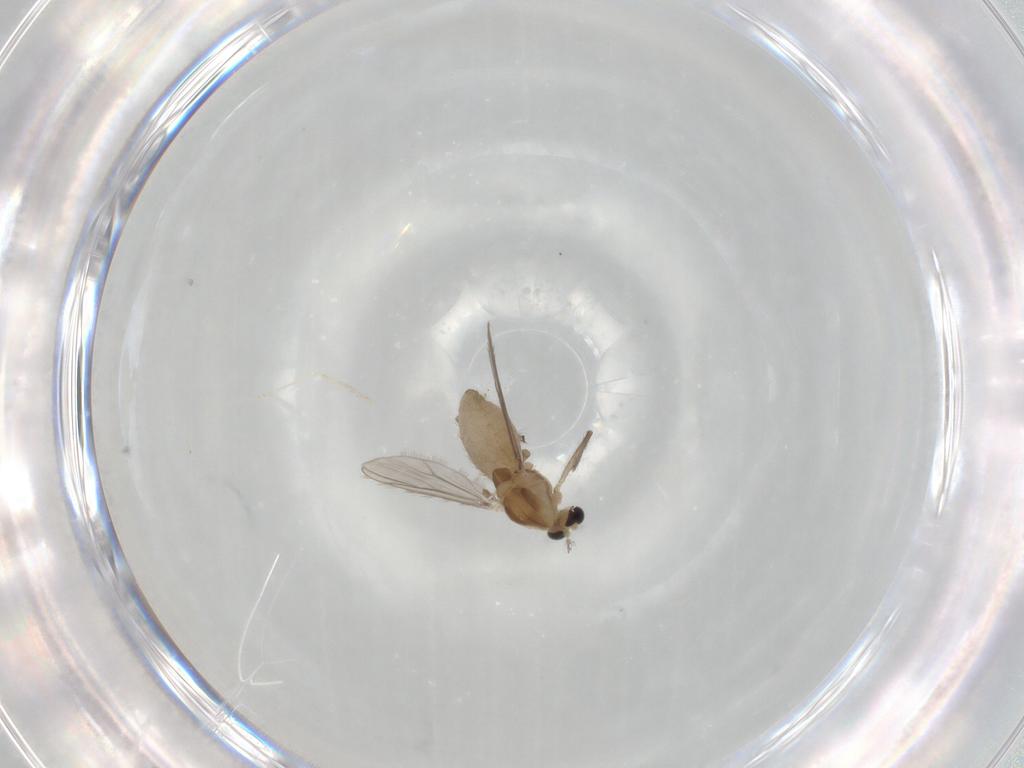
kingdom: Animalia
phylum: Arthropoda
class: Insecta
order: Diptera
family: Chironomidae
